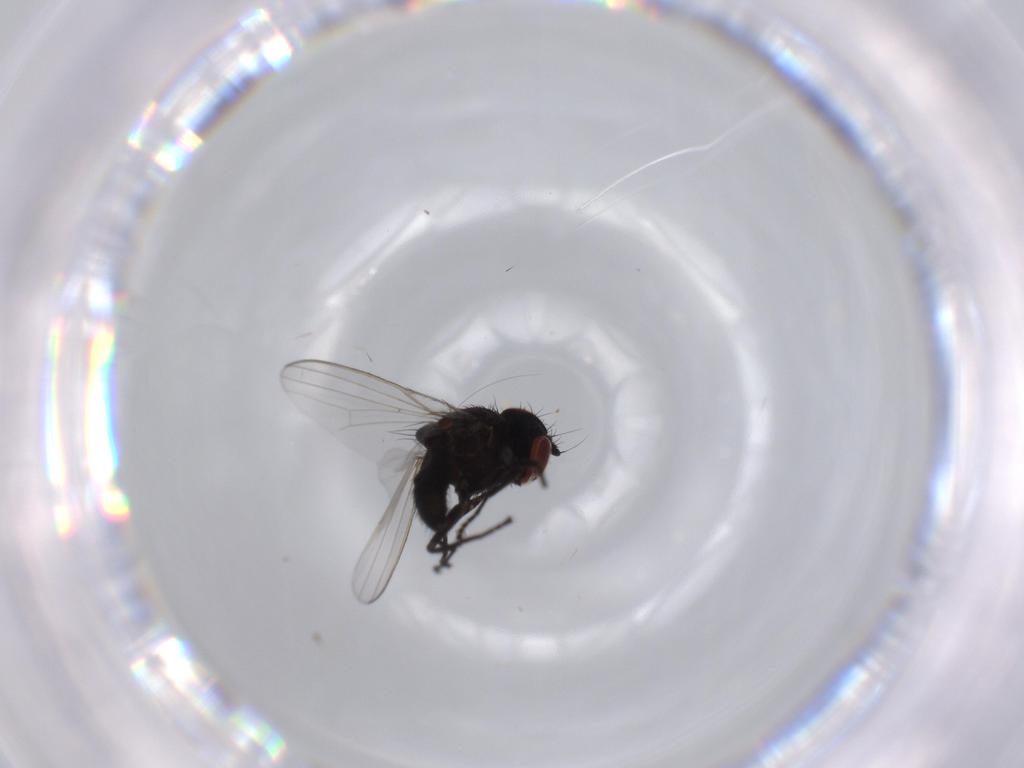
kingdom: Animalia
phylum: Arthropoda
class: Insecta
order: Diptera
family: Milichiidae
